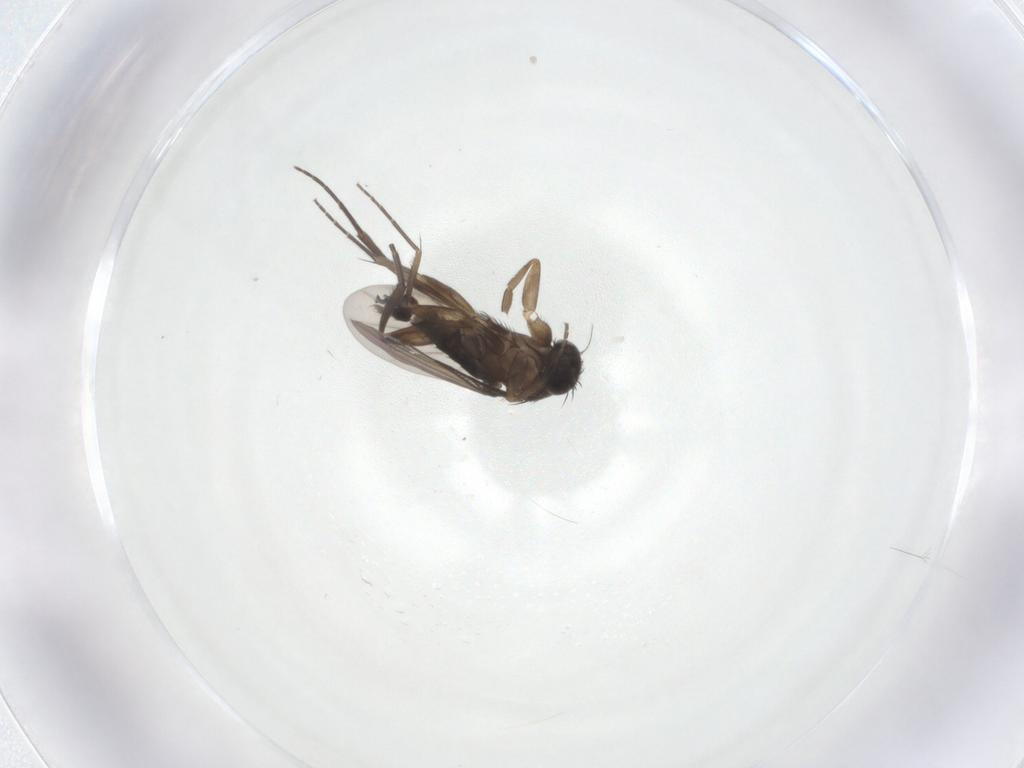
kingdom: Animalia
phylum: Arthropoda
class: Insecta
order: Diptera
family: Phoridae
